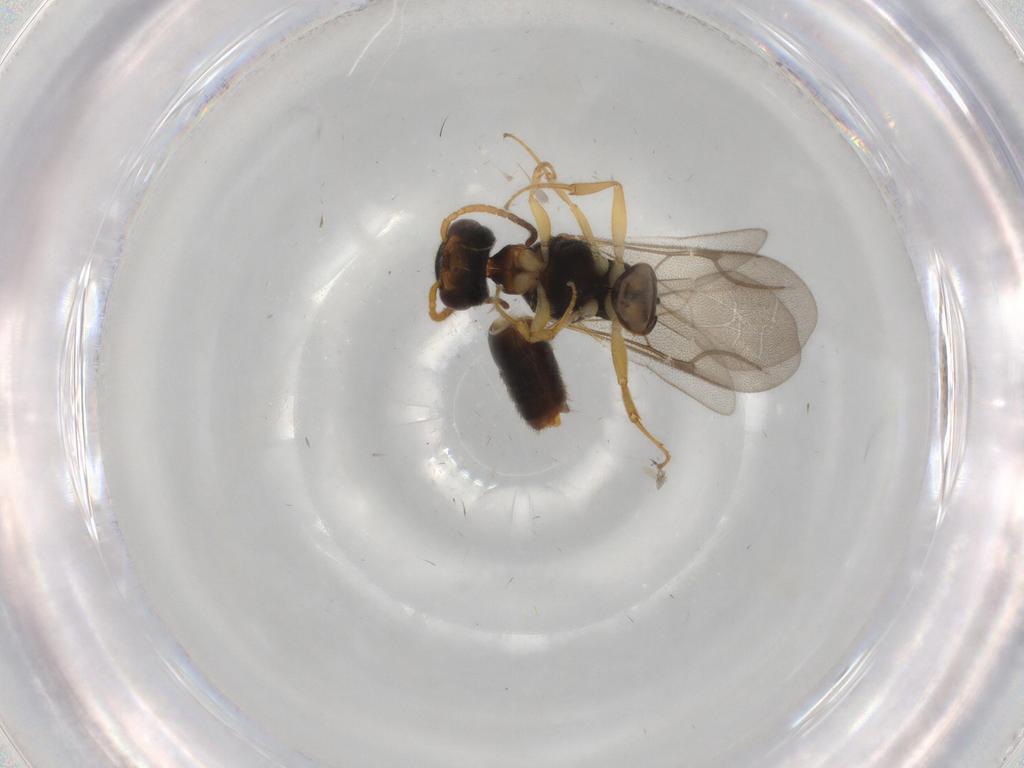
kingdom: Animalia
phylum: Arthropoda
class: Insecta
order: Hymenoptera
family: Bethylidae
